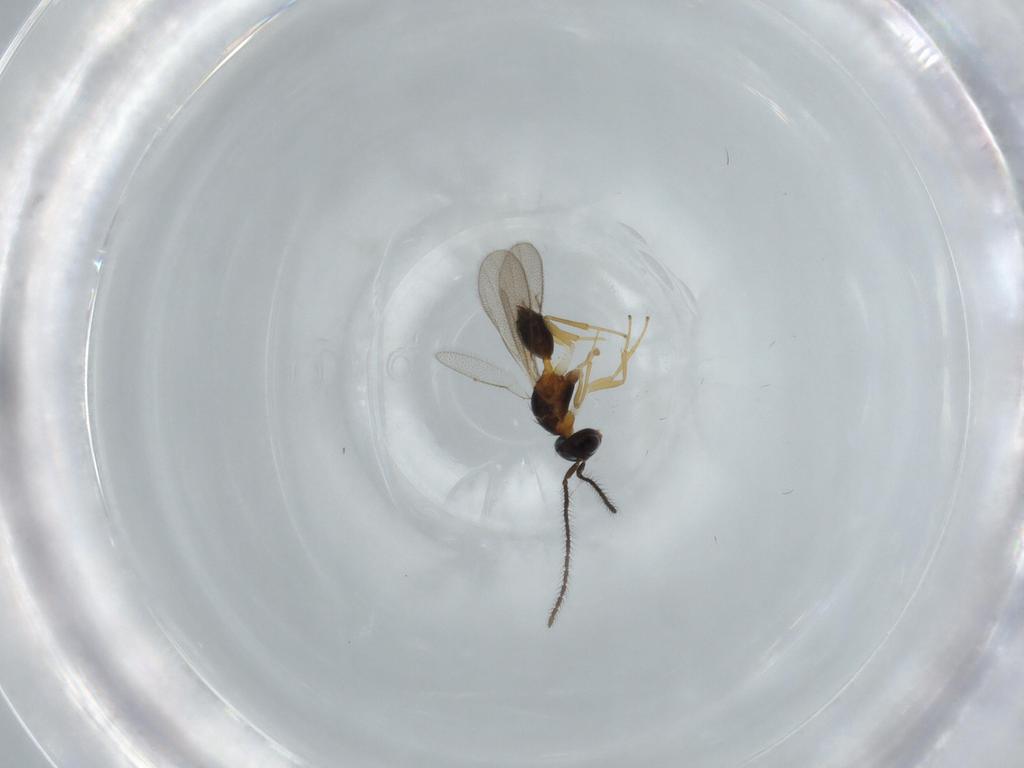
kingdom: Animalia
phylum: Arthropoda
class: Insecta
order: Hymenoptera
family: Diparidae
